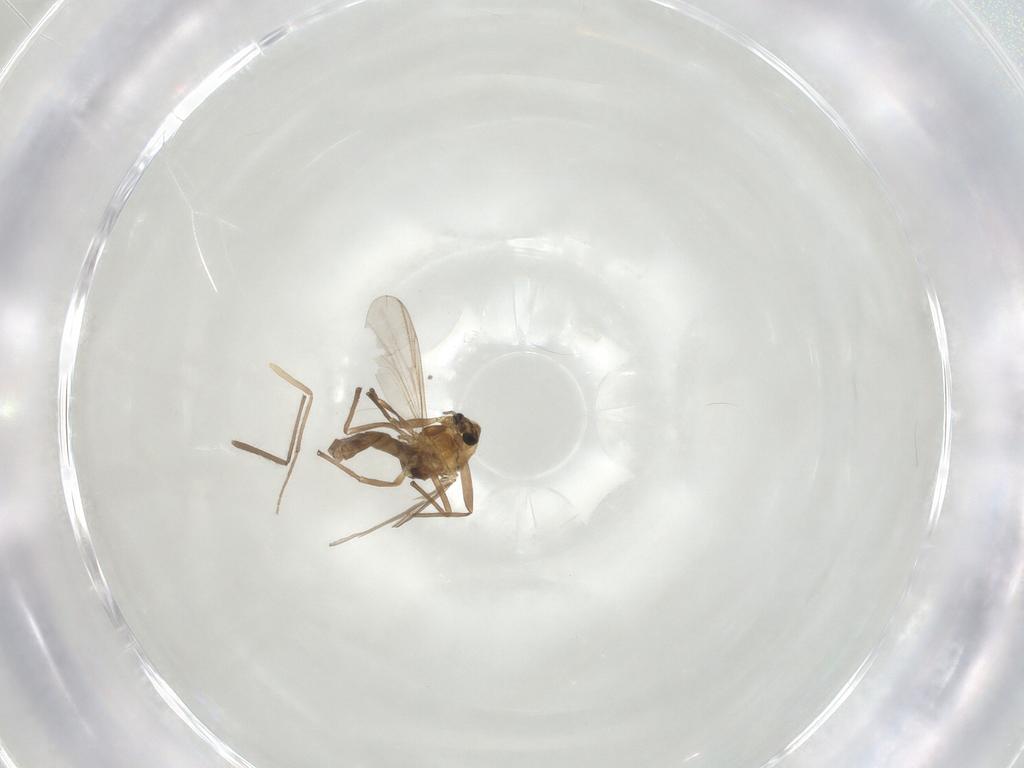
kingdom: Animalia
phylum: Arthropoda
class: Insecta
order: Diptera
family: Chironomidae
